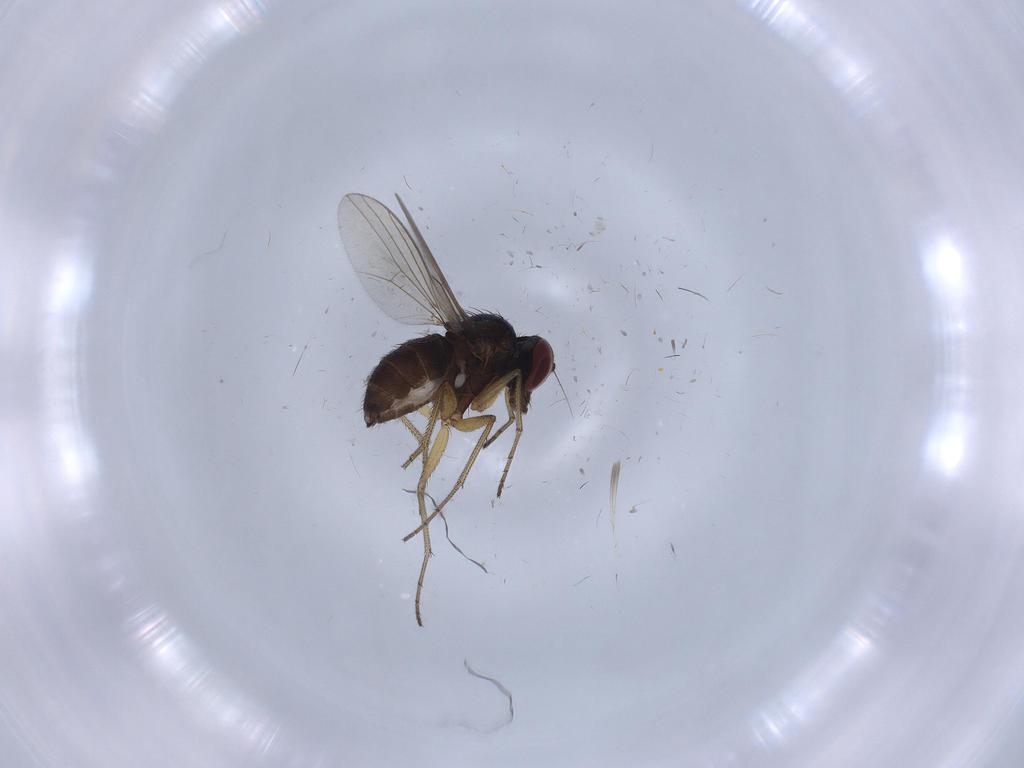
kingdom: Animalia
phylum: Arthropoda
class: Insecta
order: Diptera
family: Dolichopodidae
